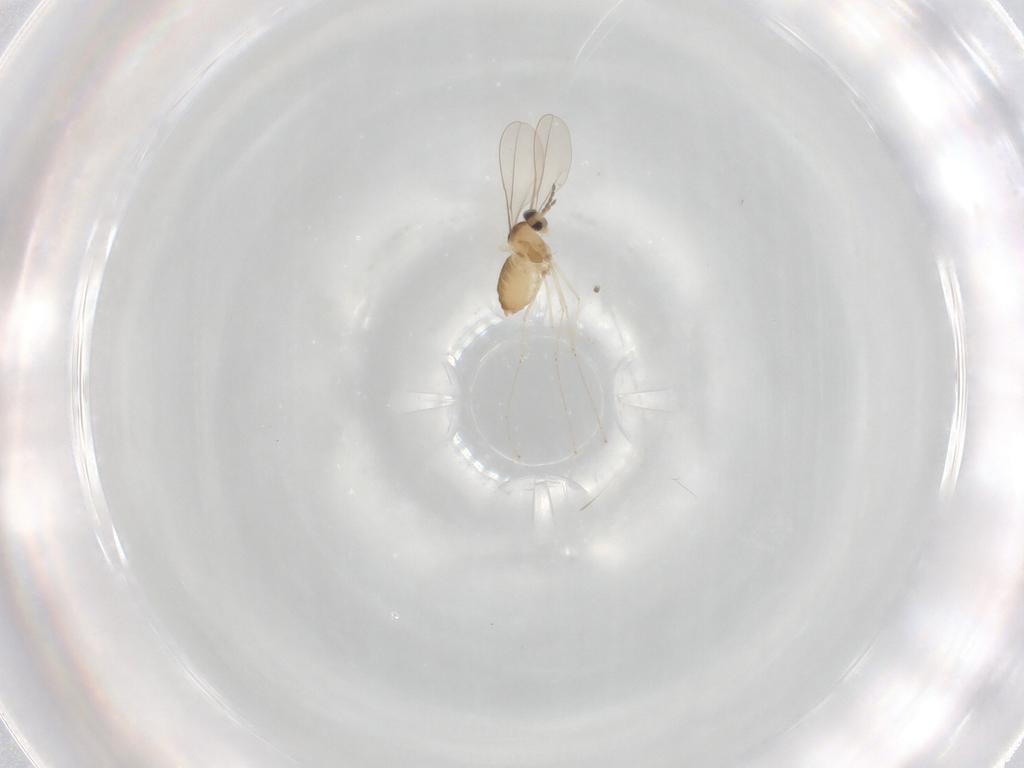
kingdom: Animalia
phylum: Arthropoda
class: Insecta
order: Diptera
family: Cecidomyiidae
